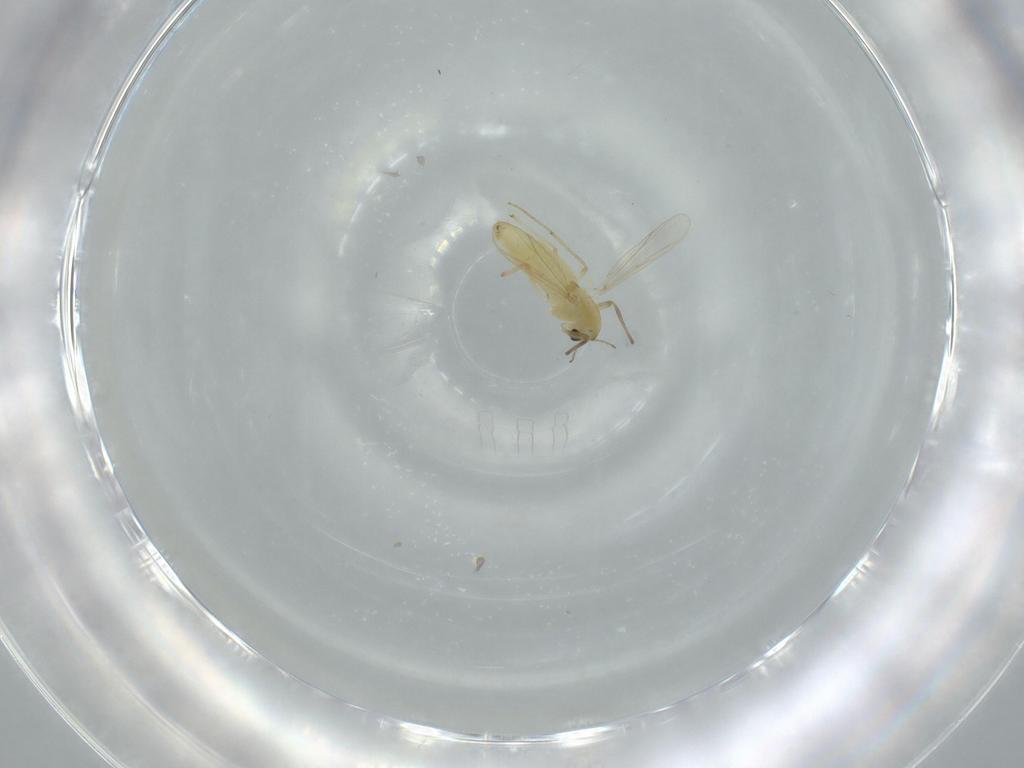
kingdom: Animalia
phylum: Arthropoda
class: Insecta
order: Diptera
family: Chironomidae
